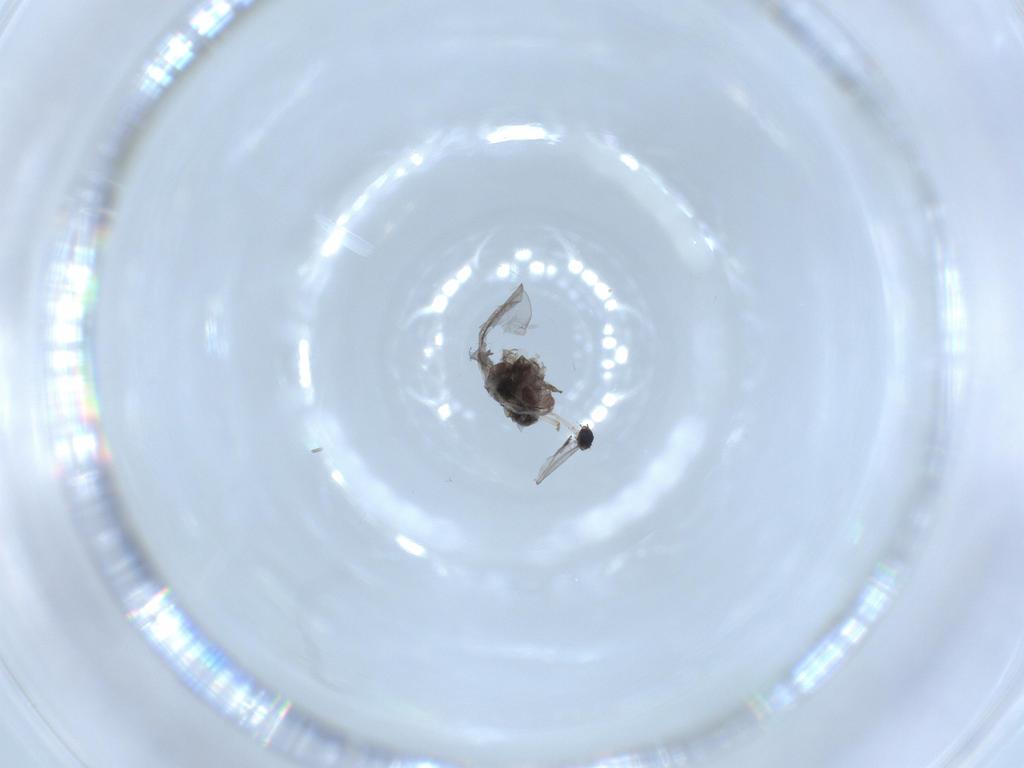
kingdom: Animalia
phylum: Arthropoda
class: Insecta
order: Diptera
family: Phoridae
